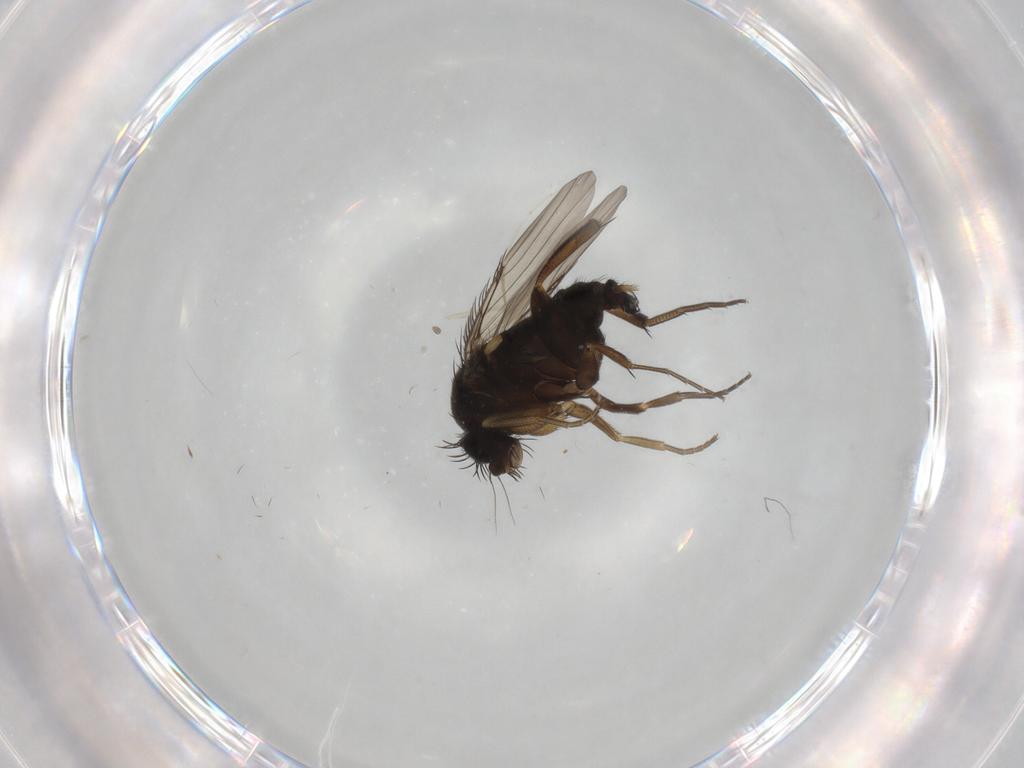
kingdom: Animalia
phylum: Arthropoda
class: Insecta
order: Diptera
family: Phoridae
